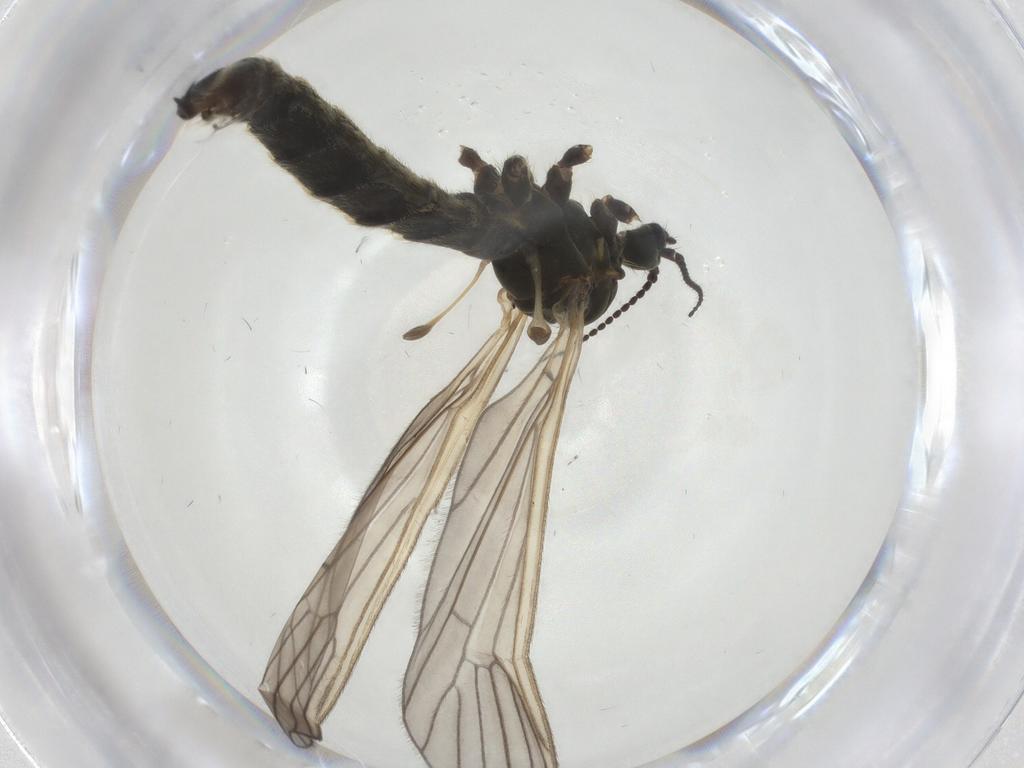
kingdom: Animalia
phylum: Arthropoda
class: Insecta
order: Diptera
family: Limoniidae
